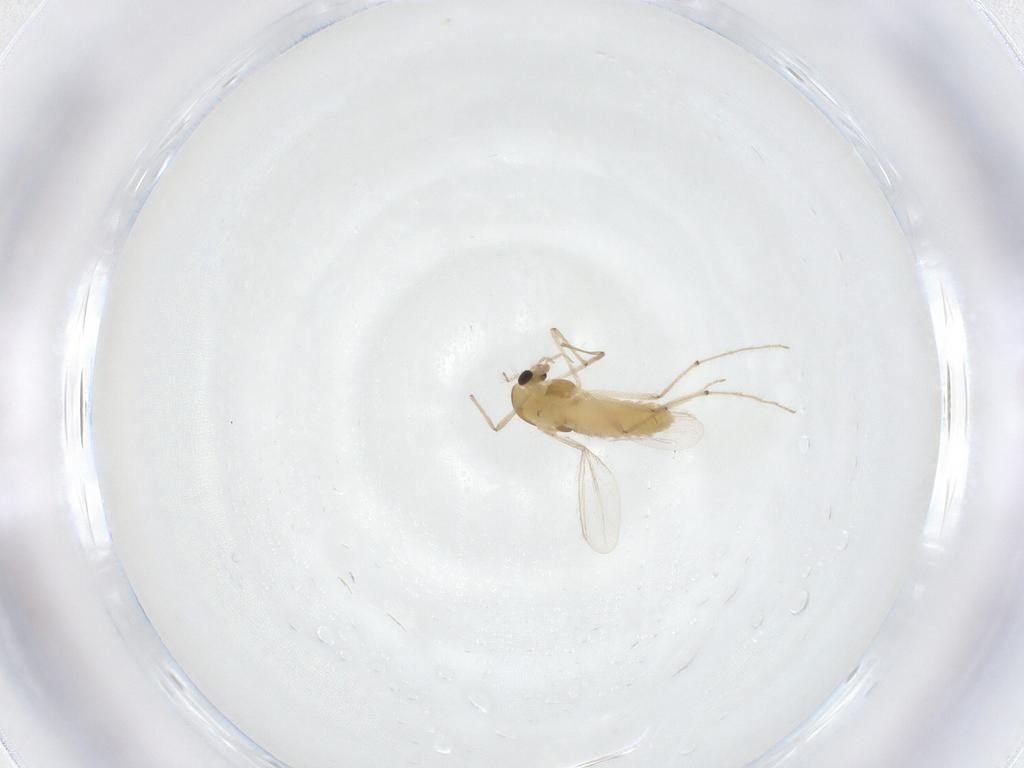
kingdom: Animalia
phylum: Arthropoda
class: Insecta
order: Diptera
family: Chironomidae
